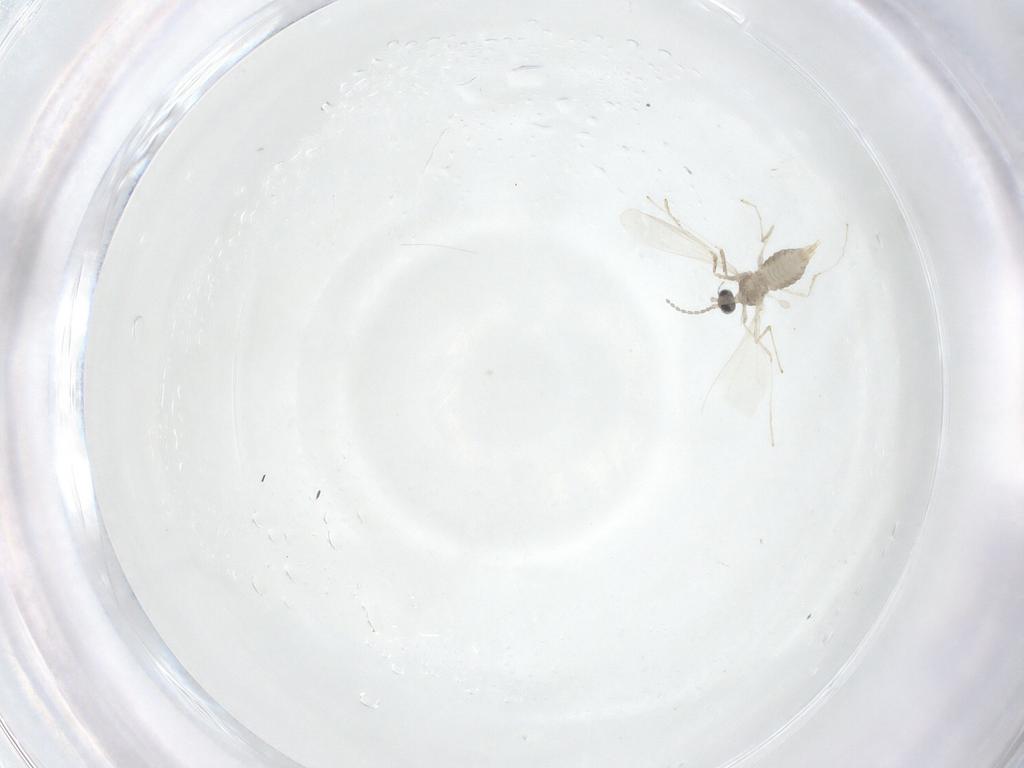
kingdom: Animalia
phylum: Arthropoda
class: Insecta
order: Diptera
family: Cecidomyiidae
